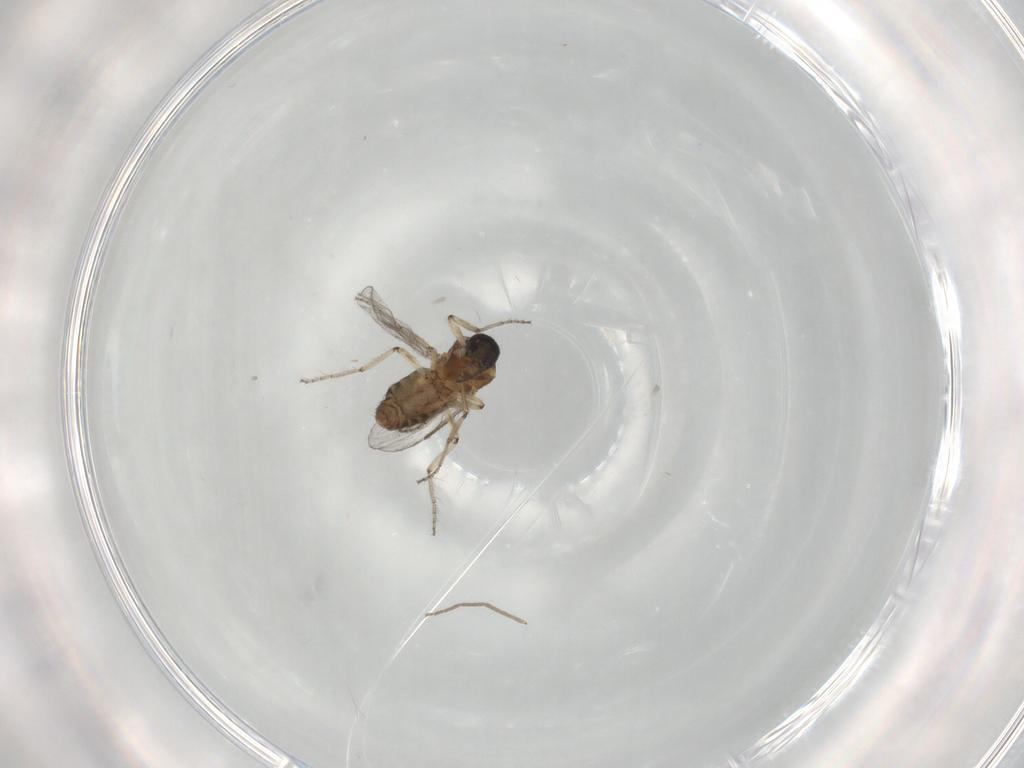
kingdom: Animalia
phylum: Arthropoda
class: Insecta
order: Diptera
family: Ceratopogonidae
